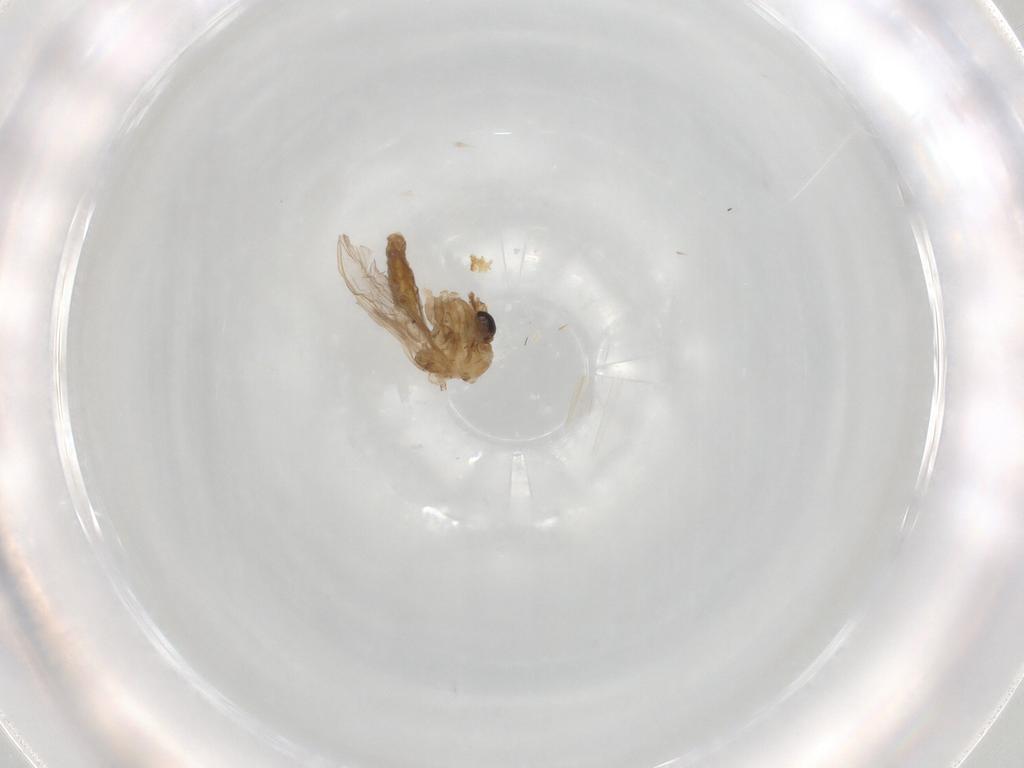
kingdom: Animalia
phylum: Arthropoda
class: Insecta
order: Diptera
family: Chironomidae
